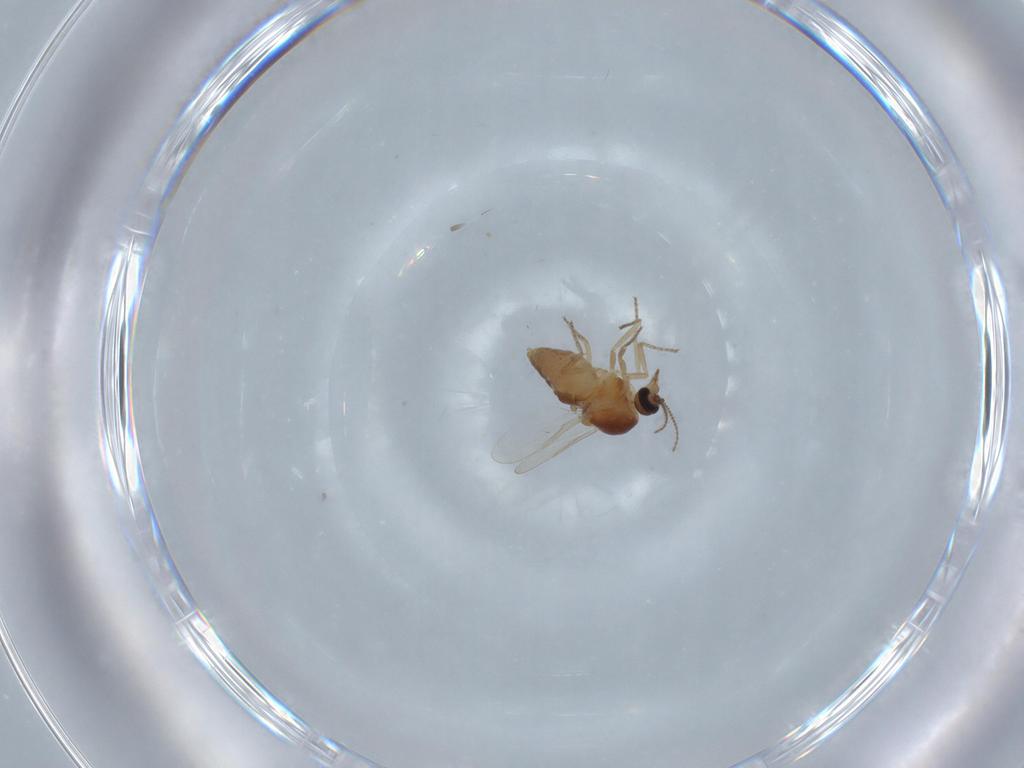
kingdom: Animalia
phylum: Arthropoda
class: Insecta
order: Diptera
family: Ceratopogonidae
